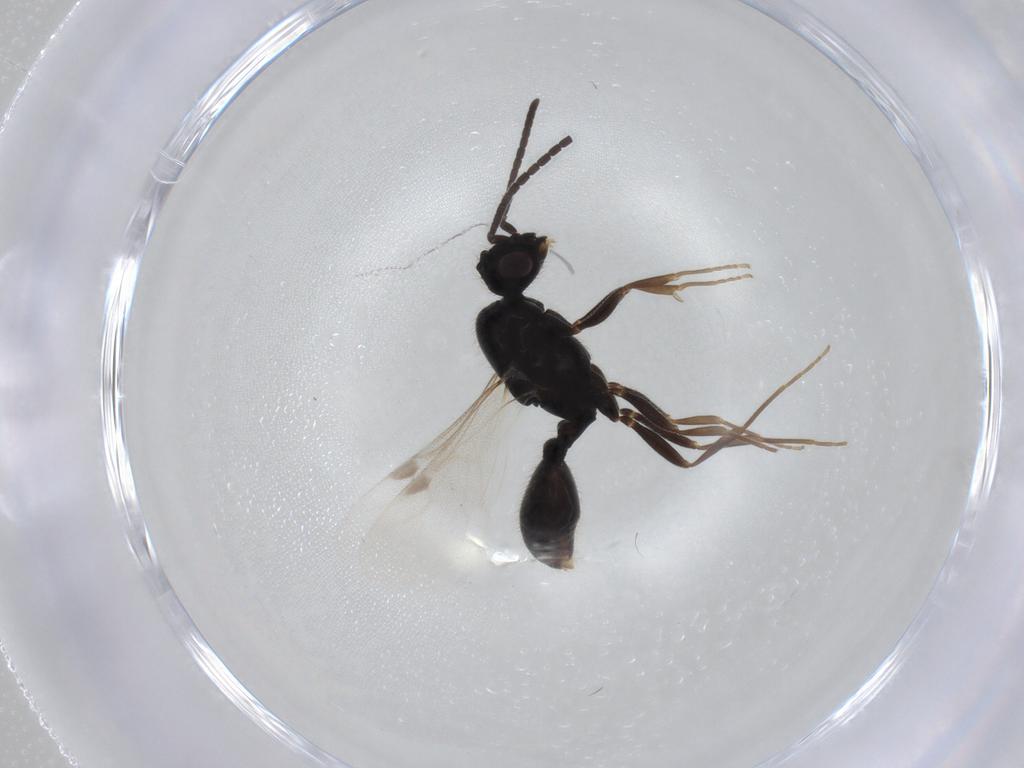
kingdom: Animalia
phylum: Arthropoda
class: Insecta
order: Hymenoptera
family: Formicidae
